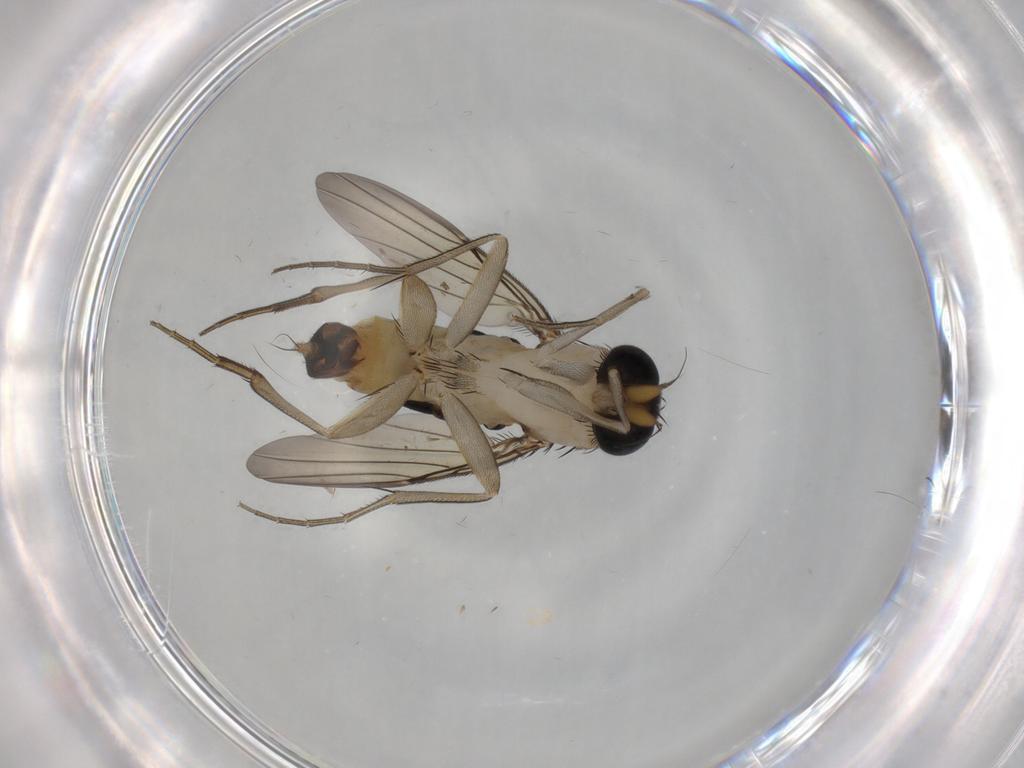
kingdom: Animalia
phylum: Arthropoda
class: Insecta
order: Diptera
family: Phoridae
